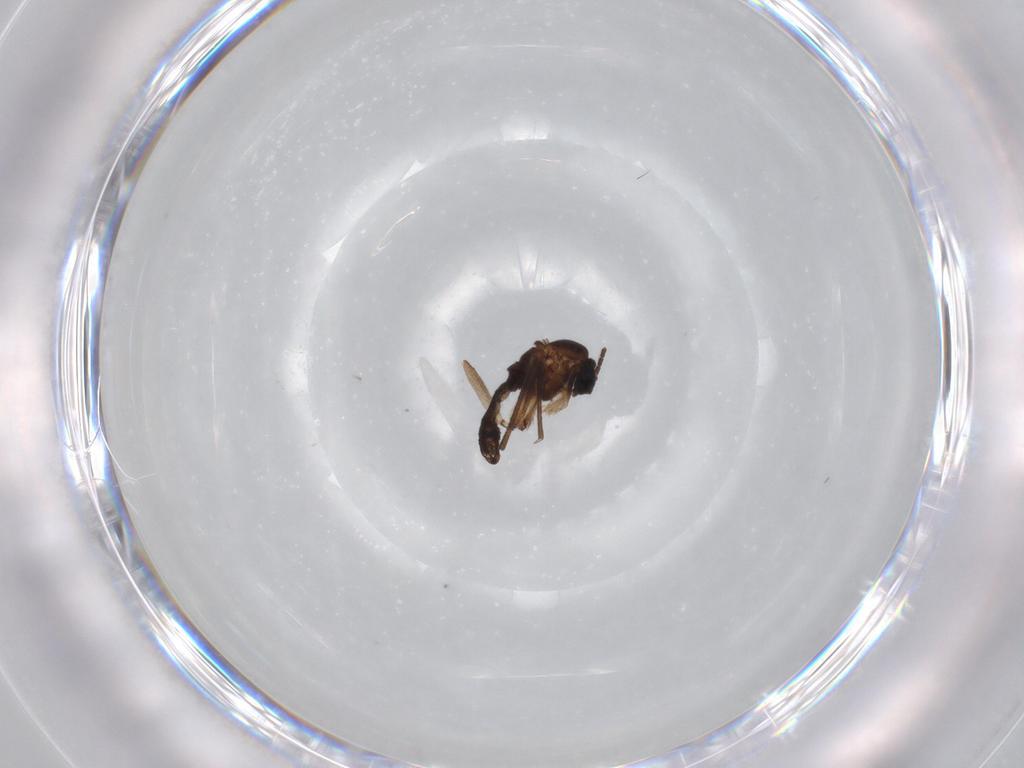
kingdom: Animalia
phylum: Arthropoda
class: Insecta
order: Diptera
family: Sciaridae
